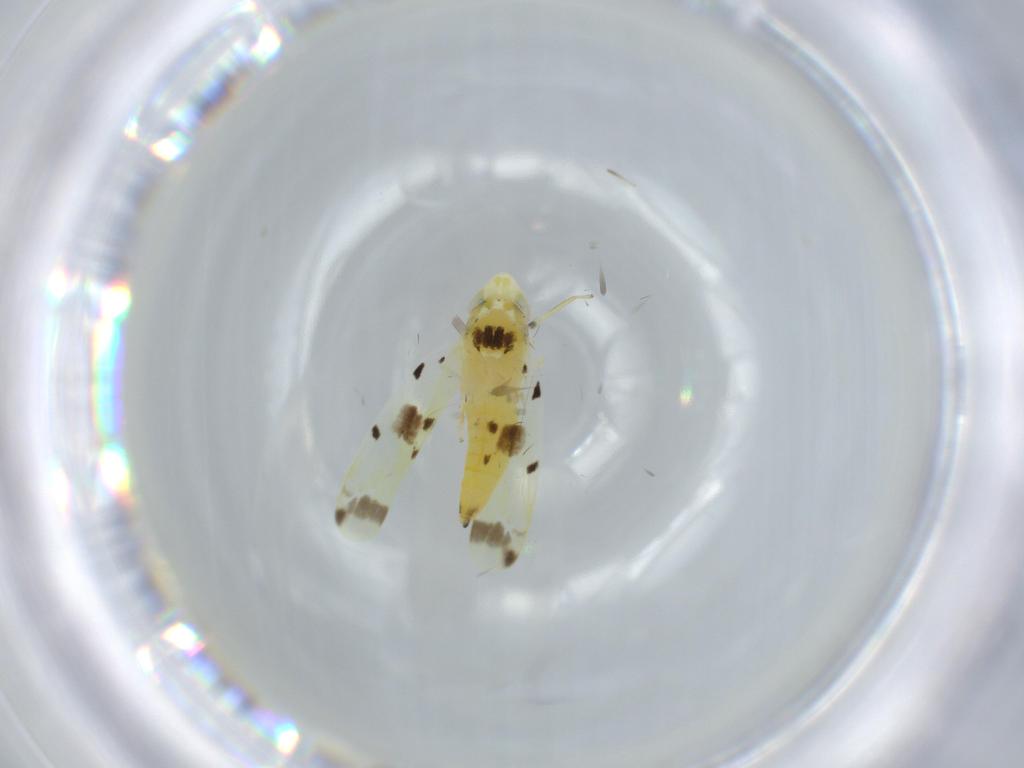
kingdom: Animalia
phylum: Arthropoda
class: Insecta
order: Hemiptera
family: Cicadellidae
